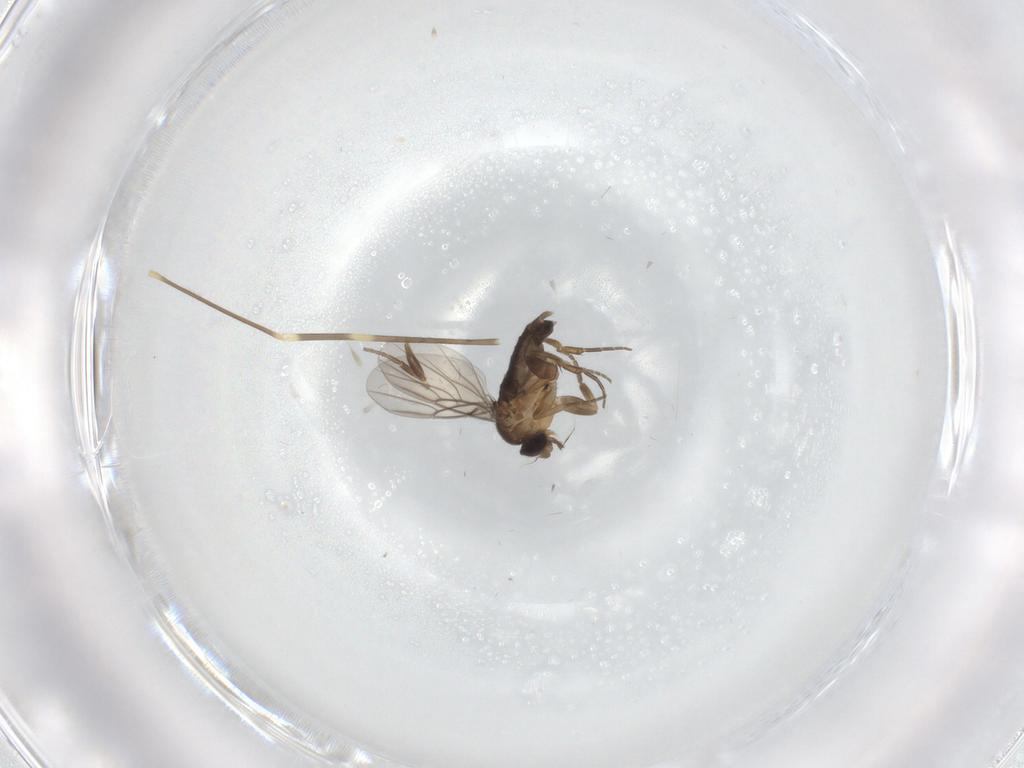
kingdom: Animalia
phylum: Arthropoda
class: Insecta
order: Diptera
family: Limoniidae
